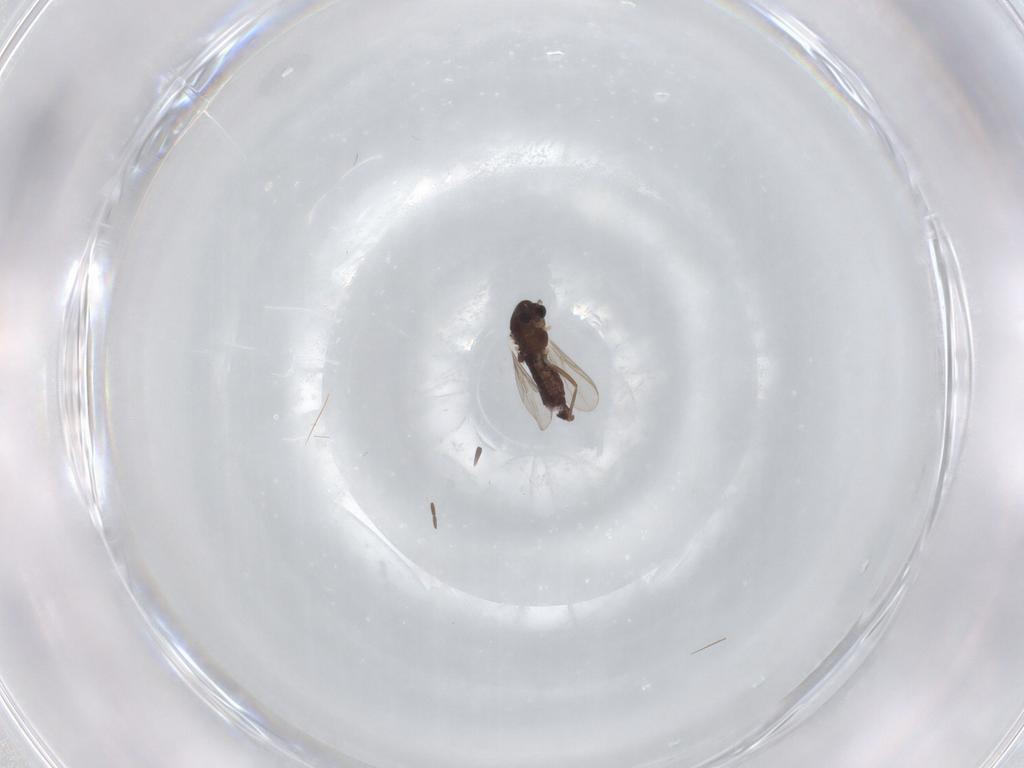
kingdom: Animalia
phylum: Arthropoda
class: Insecta
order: Diptera
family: Chironomidae
